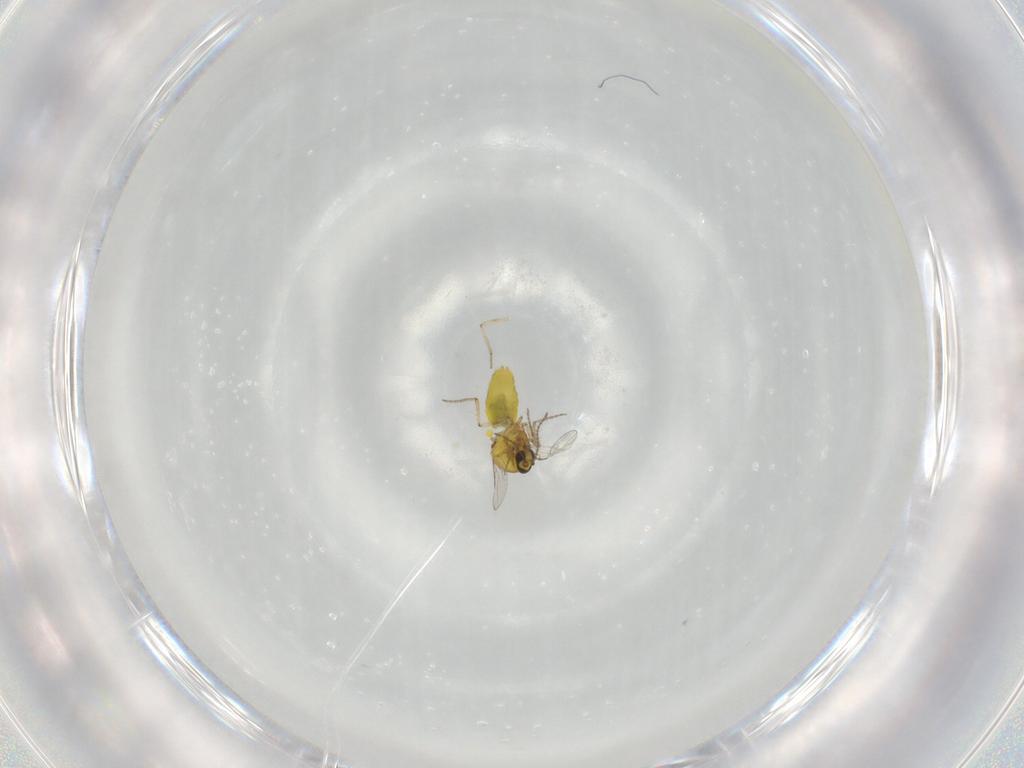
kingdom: Animalia
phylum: Arthropoda
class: Insecta
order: Diptera
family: Ceratopogonidae
